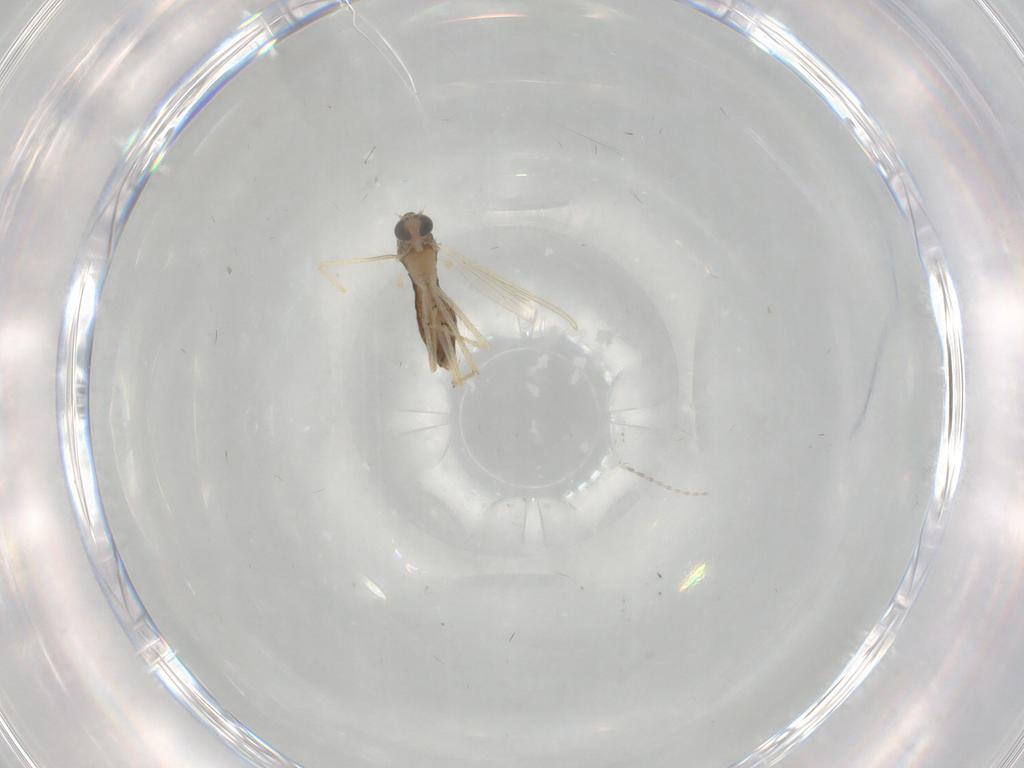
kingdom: Animalia
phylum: Arthropoda
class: Insecta
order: Diptera
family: Chironomidae
